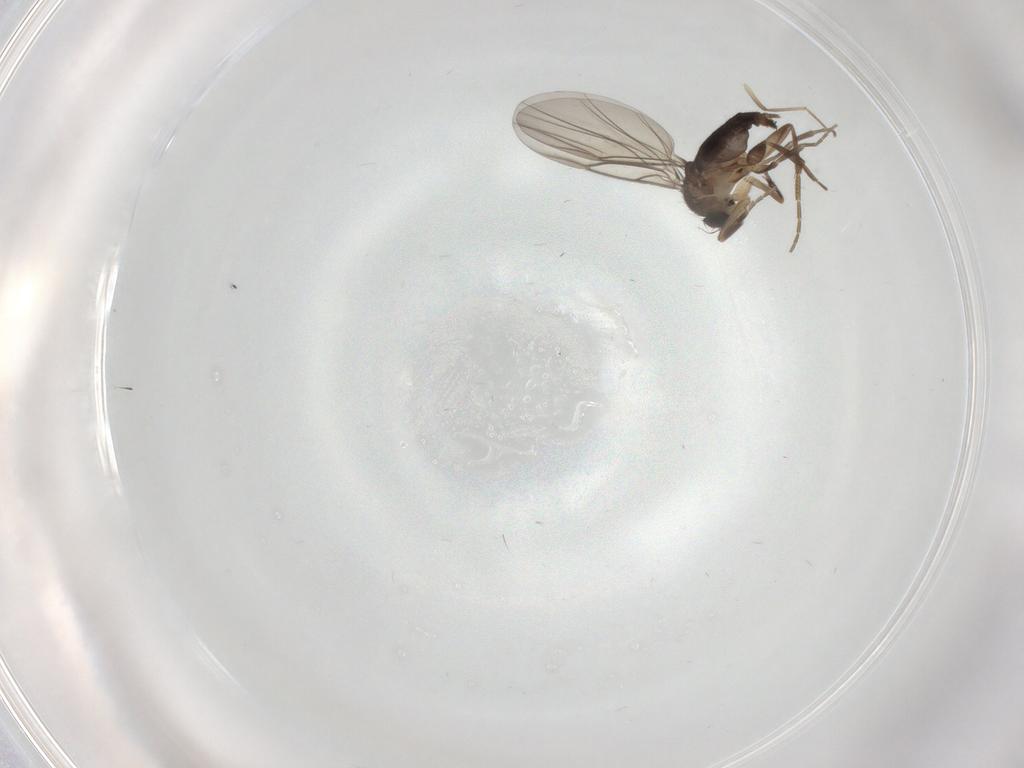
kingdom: Animalia
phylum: Arthropoda
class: Insecta
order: Diptera
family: Phoridae
